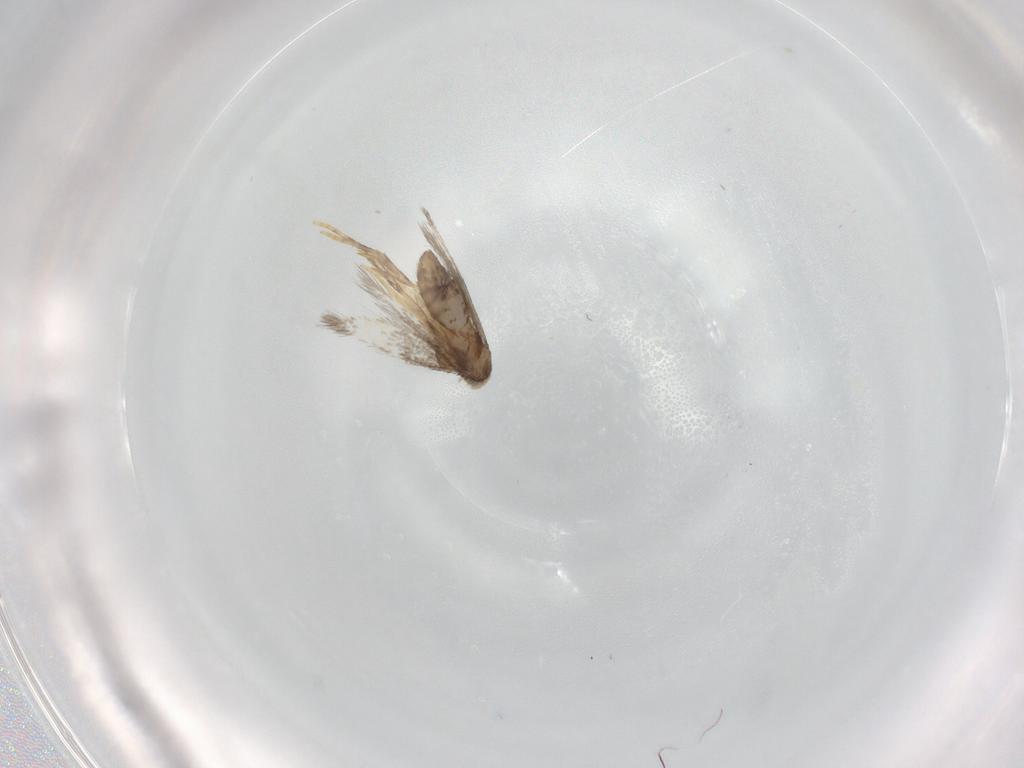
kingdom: Animalia
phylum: Arthropoda
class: Insecta
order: Lepidoptera
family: Nepticulidae
